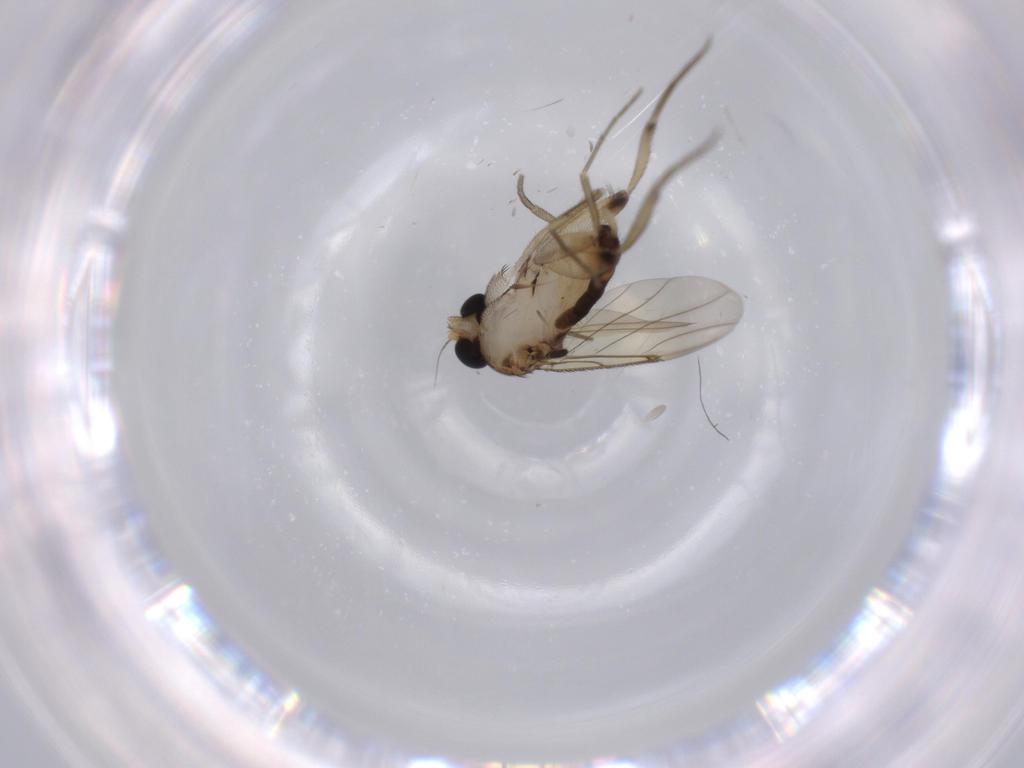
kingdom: Animalia
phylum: Arthropoda
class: Insecta
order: Diptera
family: Cecidomyiidae
